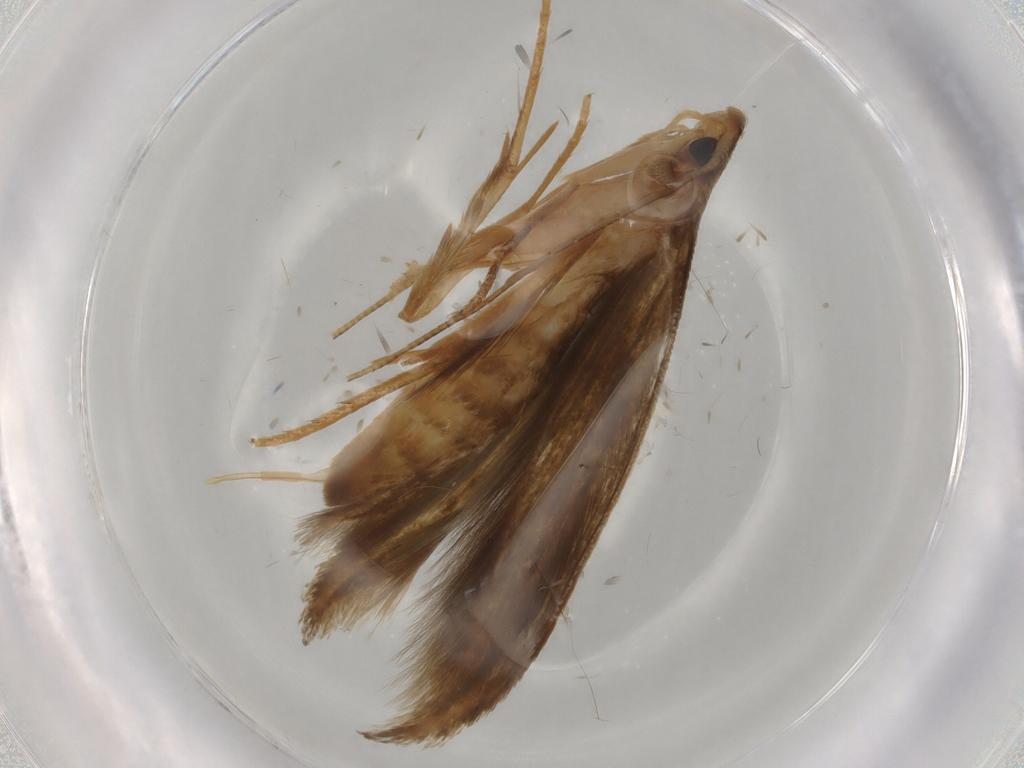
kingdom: Animalia
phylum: Arthropoda
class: Insecta
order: Lepidoptera
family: Tineidae
